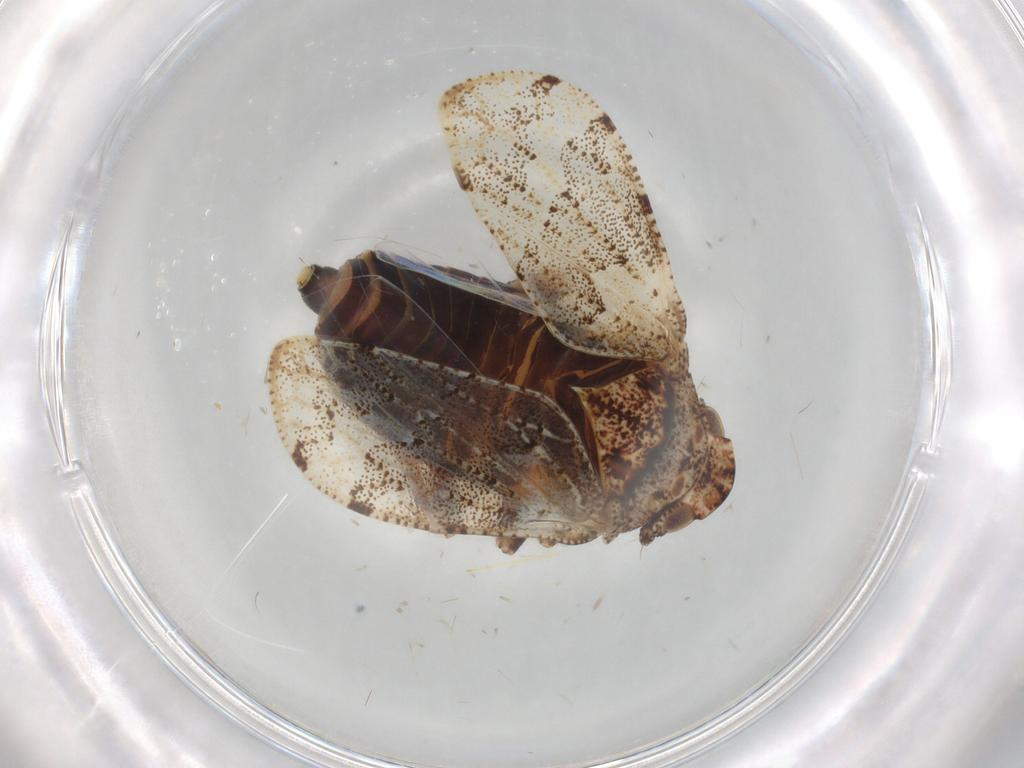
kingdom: Animalia
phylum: Arthropoda
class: Insecta
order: Hemiptera
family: Tettigometridae
